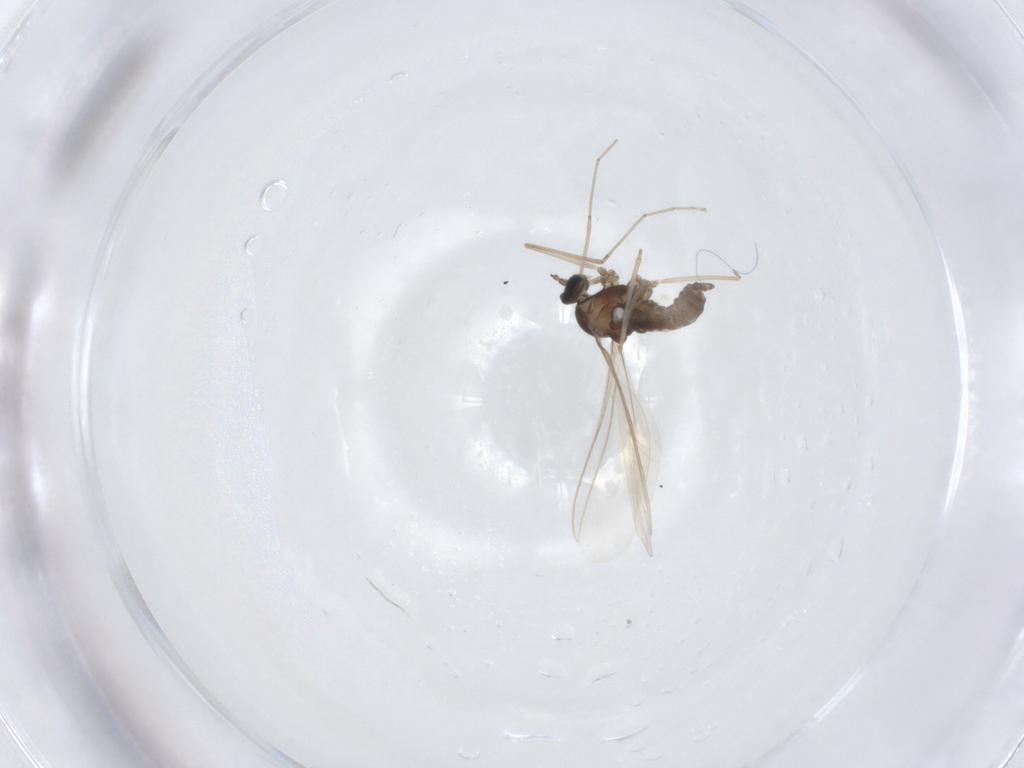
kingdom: Animalia
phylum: Arthropoda
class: Insecta
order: Diptera
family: Cecidomyiidae
